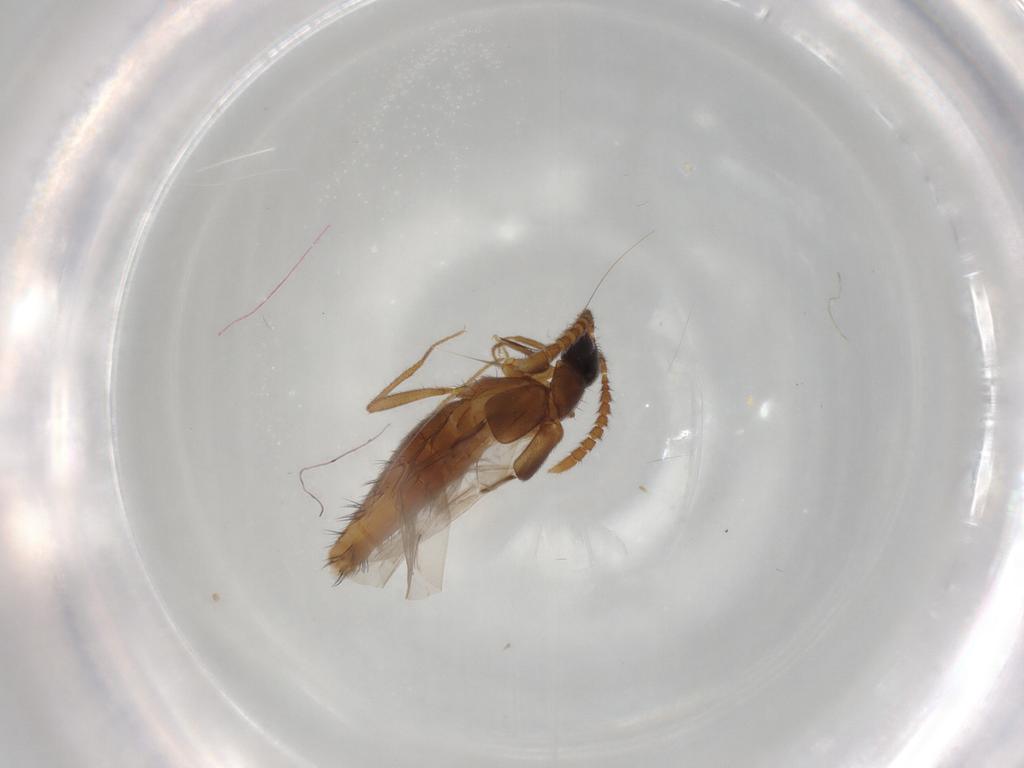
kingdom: Animalia
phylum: Arthropoda
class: Insecta
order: Coleoptera
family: Staphylinidae
